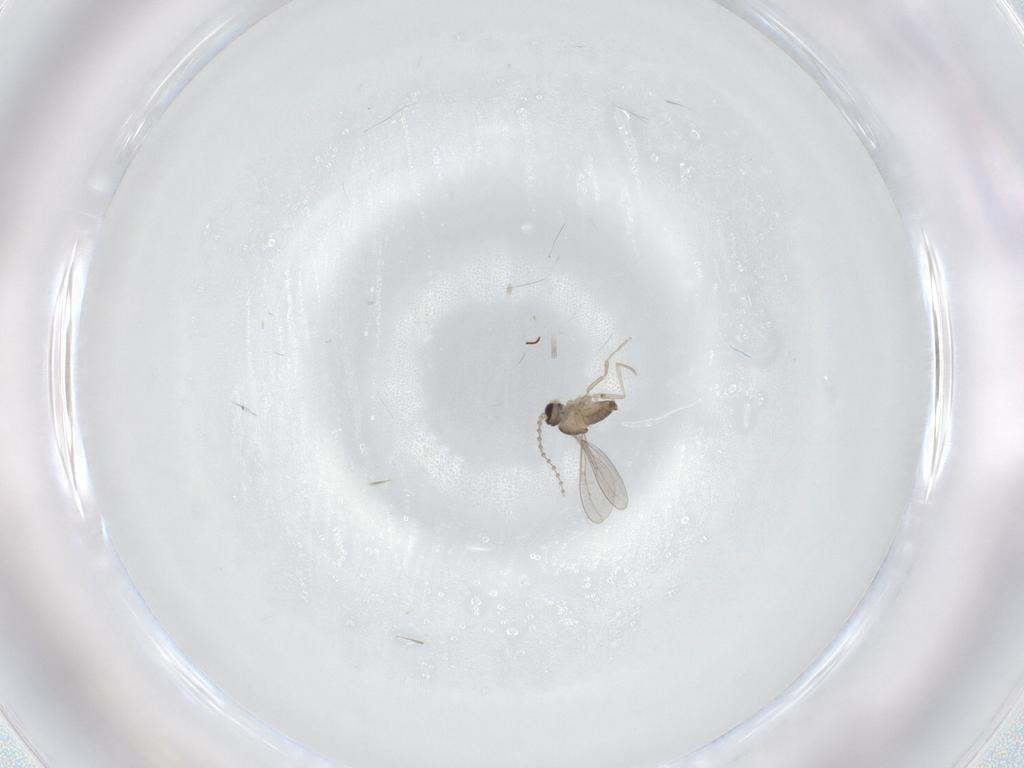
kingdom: Animalia
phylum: Arthropoda
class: Insecta
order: Diptera
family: Cecidomyiidae
